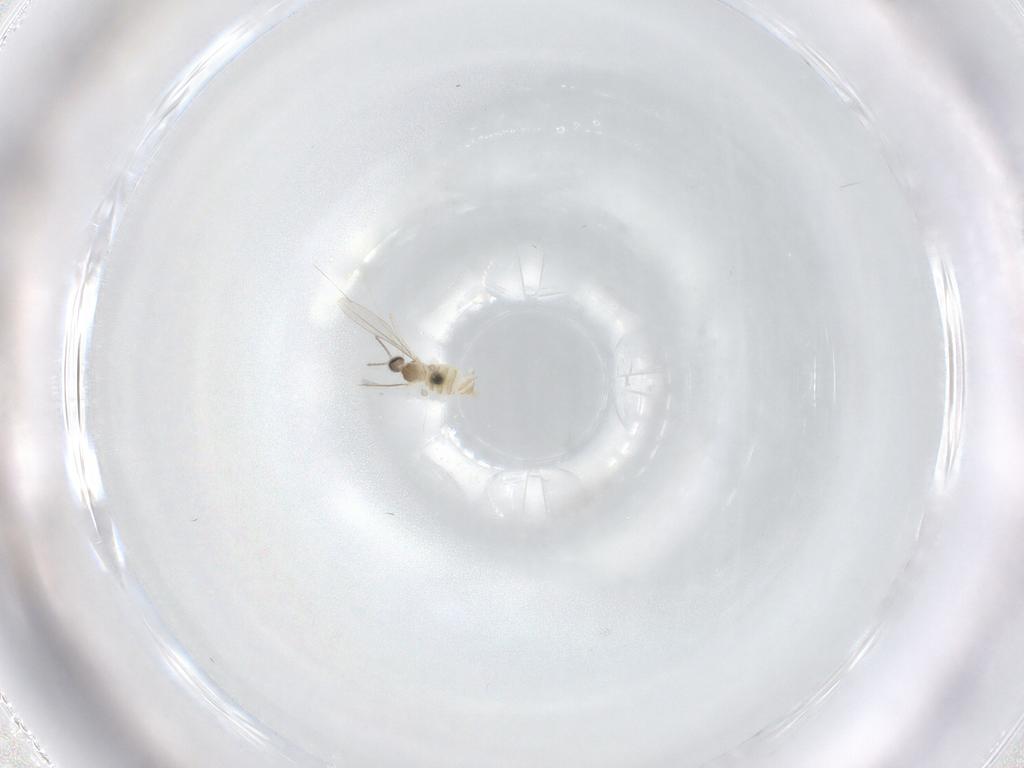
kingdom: Animalia
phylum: Arthropoda
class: Insecta
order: Diptera
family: Cecidomyiidae
